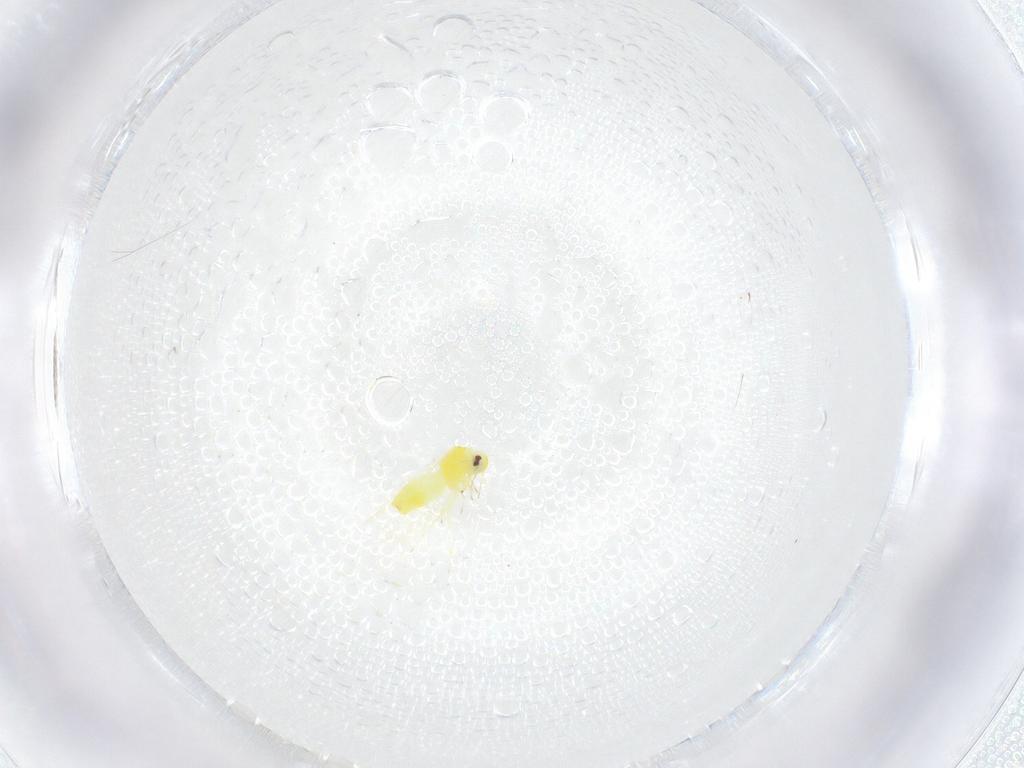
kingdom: Animalia
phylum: Arthropoda
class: Insecta
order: Hemiptera
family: Aleyrodidae
